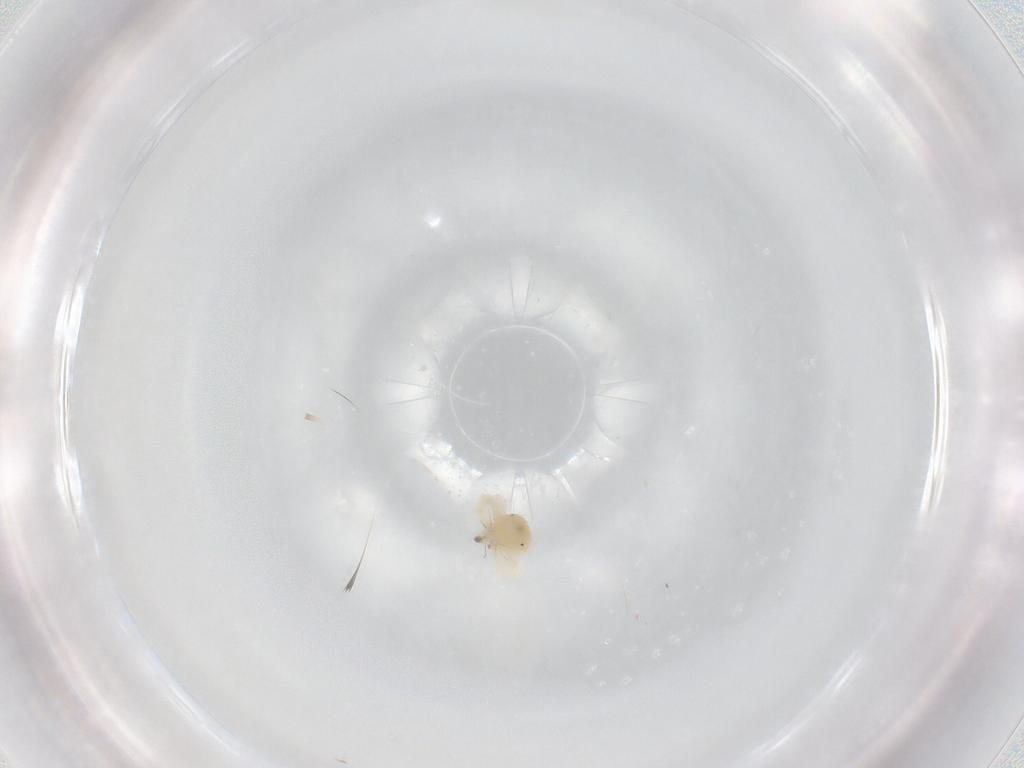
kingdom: Animalia
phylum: Arthropoda
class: Arachnida
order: Trombidiformes
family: Anystidae
